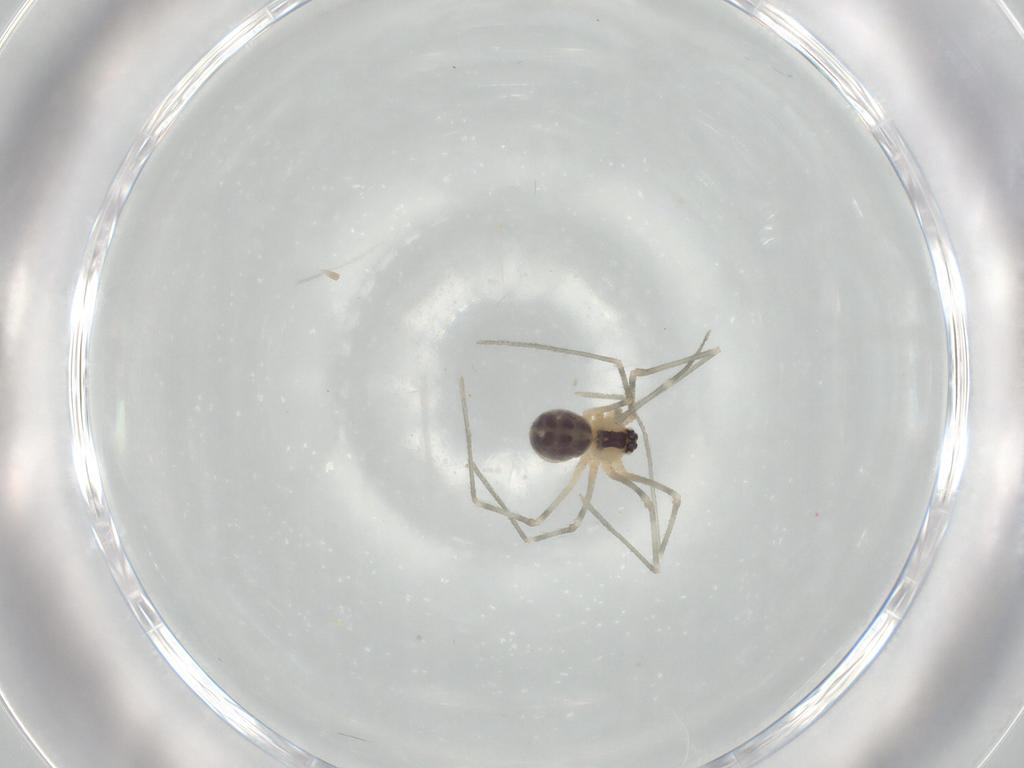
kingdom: Animalia
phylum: Arthropoda
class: Arachnida
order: Araneae
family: Pholcidae
